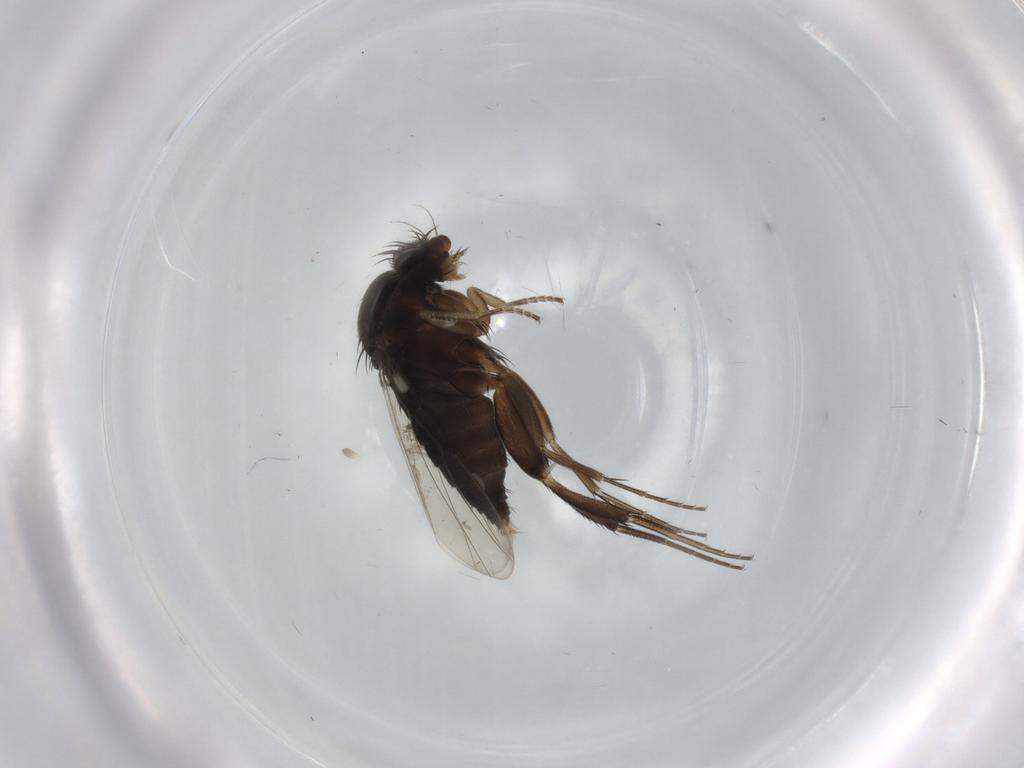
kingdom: Animalia
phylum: Arthropoda
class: Insecta
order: Diptera
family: Phoridae
